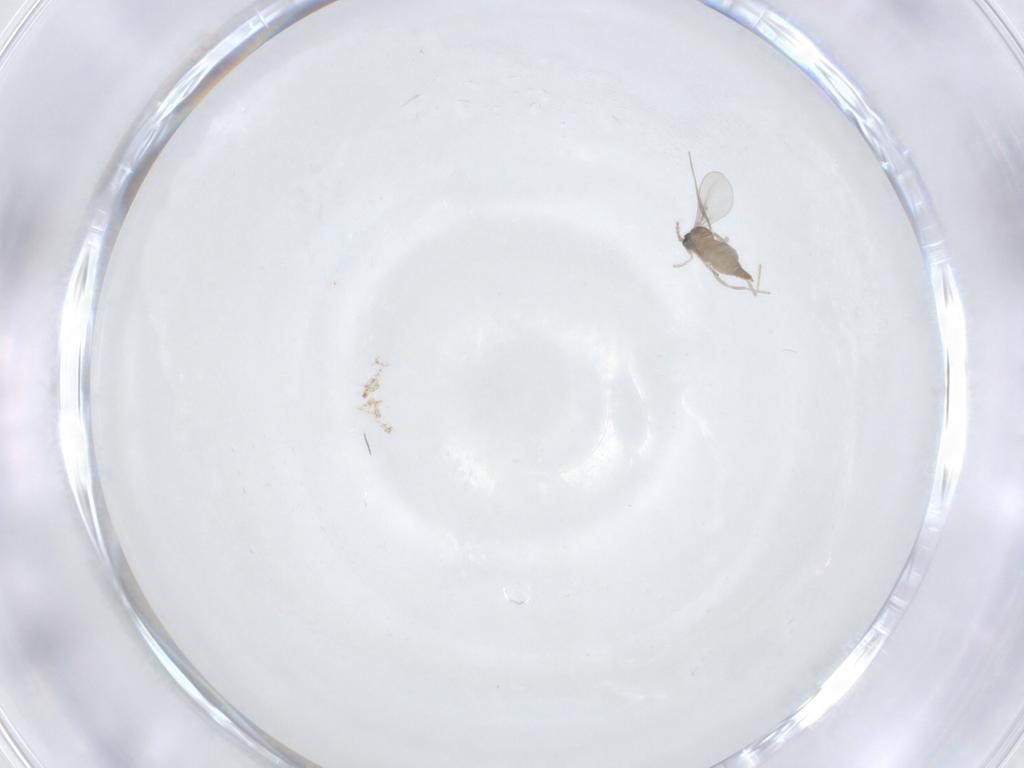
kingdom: Animalia
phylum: Arthropoda
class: Insecta
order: Diptera
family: Cecidomyiidae
